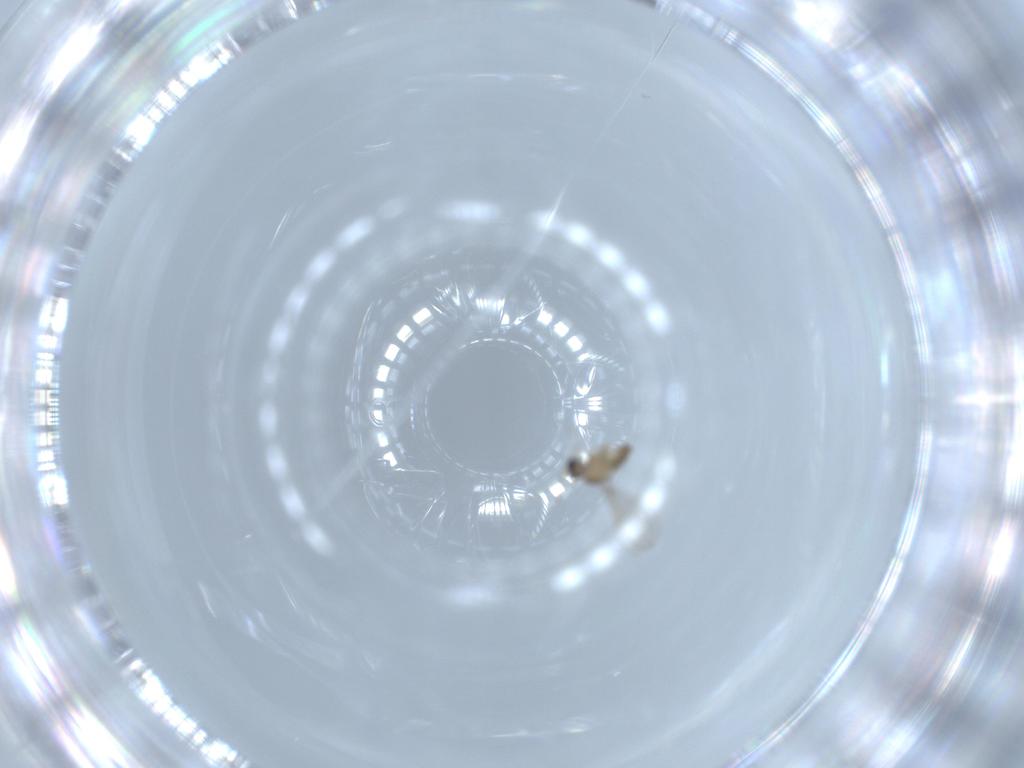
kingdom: Animalia
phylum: Arthropoda
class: Insecta
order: Diptera
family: Cecidomyiidae
